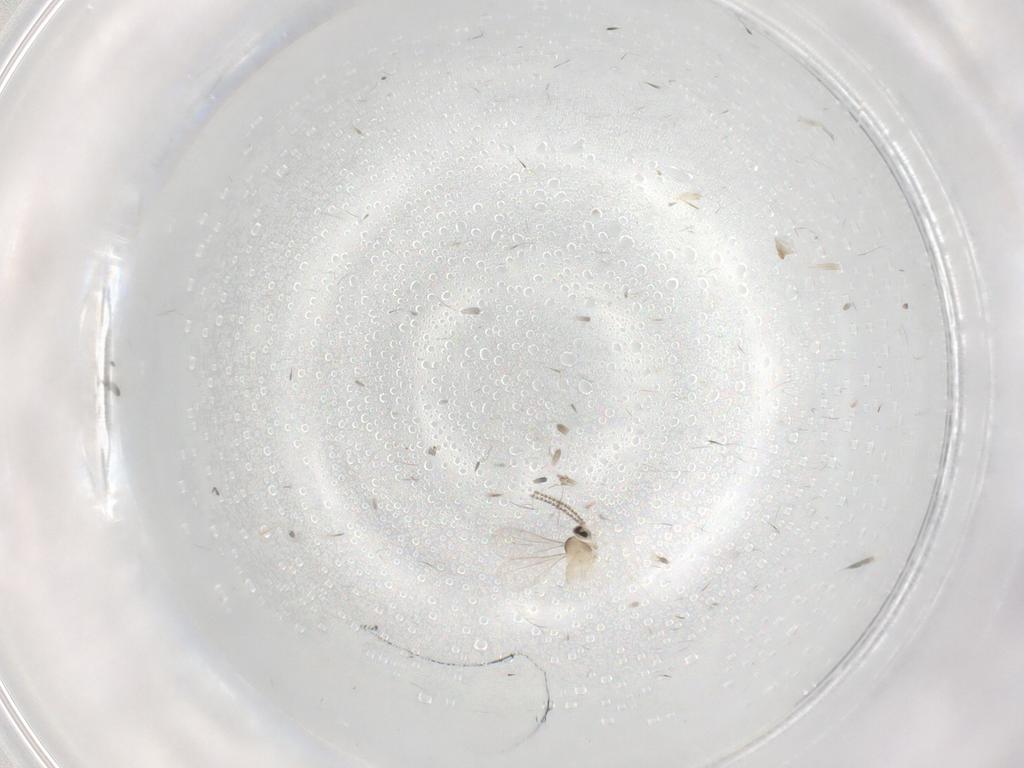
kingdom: Animalia
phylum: Arthropoda
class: Insecta
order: Diptera
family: Cecidomyiidae
